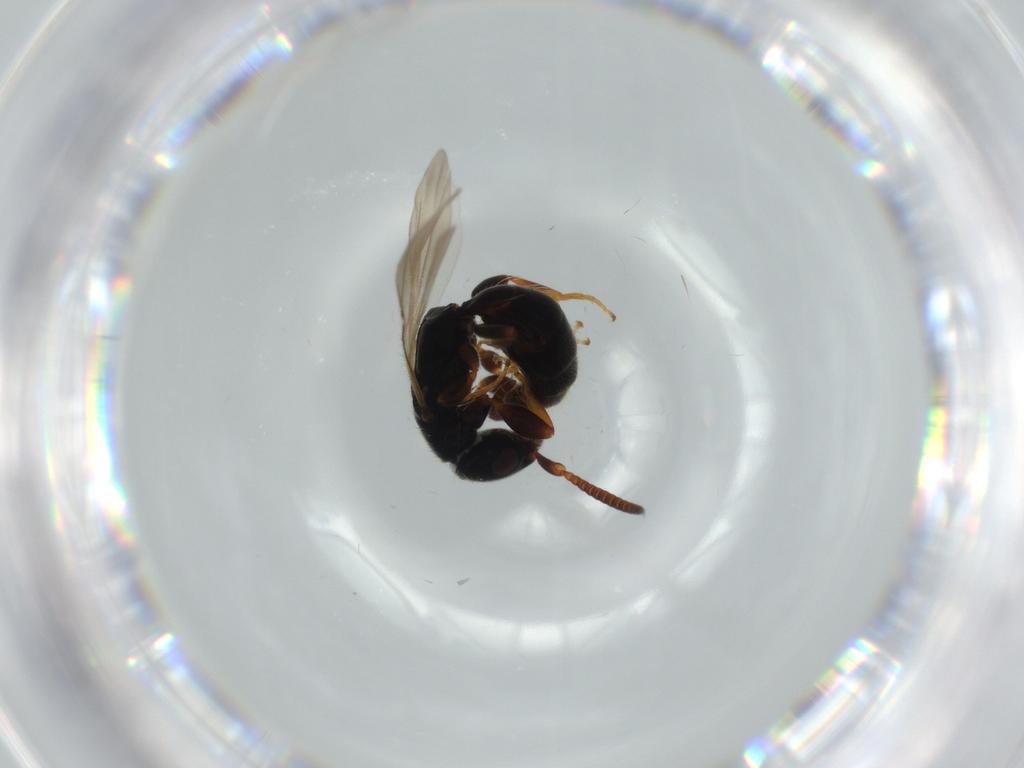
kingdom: Animalia
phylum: Arthropoda
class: Insecta
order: Hymenoptera
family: Bethylidae
